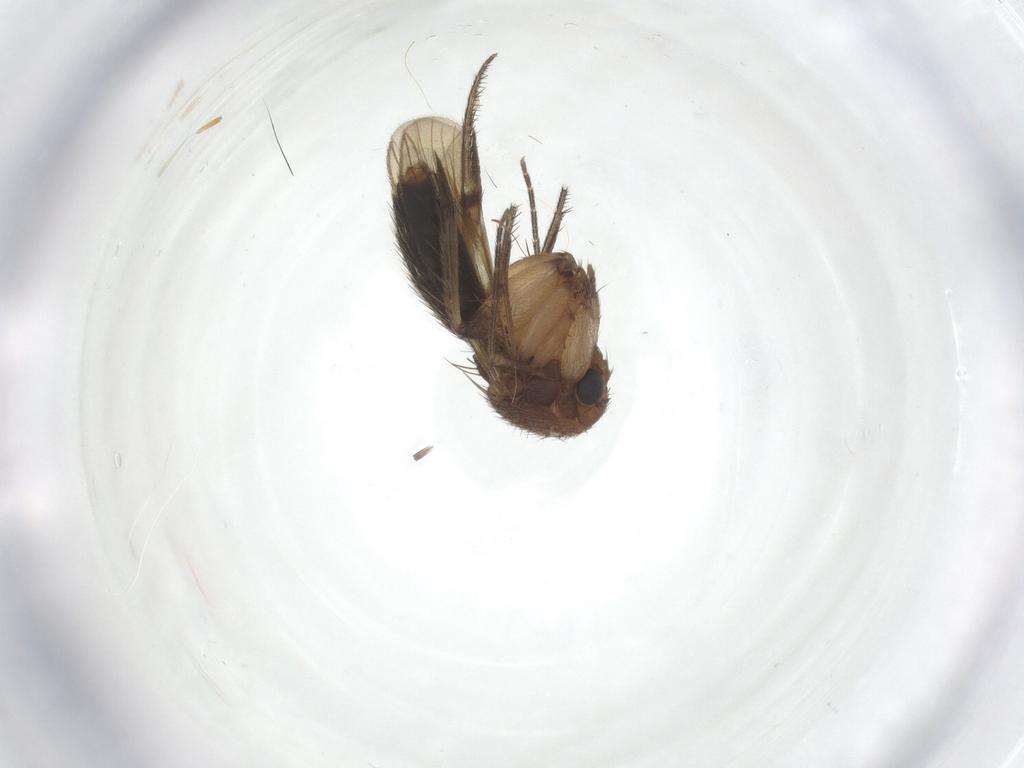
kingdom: Animalia
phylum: Arthropoda
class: Insecta
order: Diptera
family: Mycetophilidae
